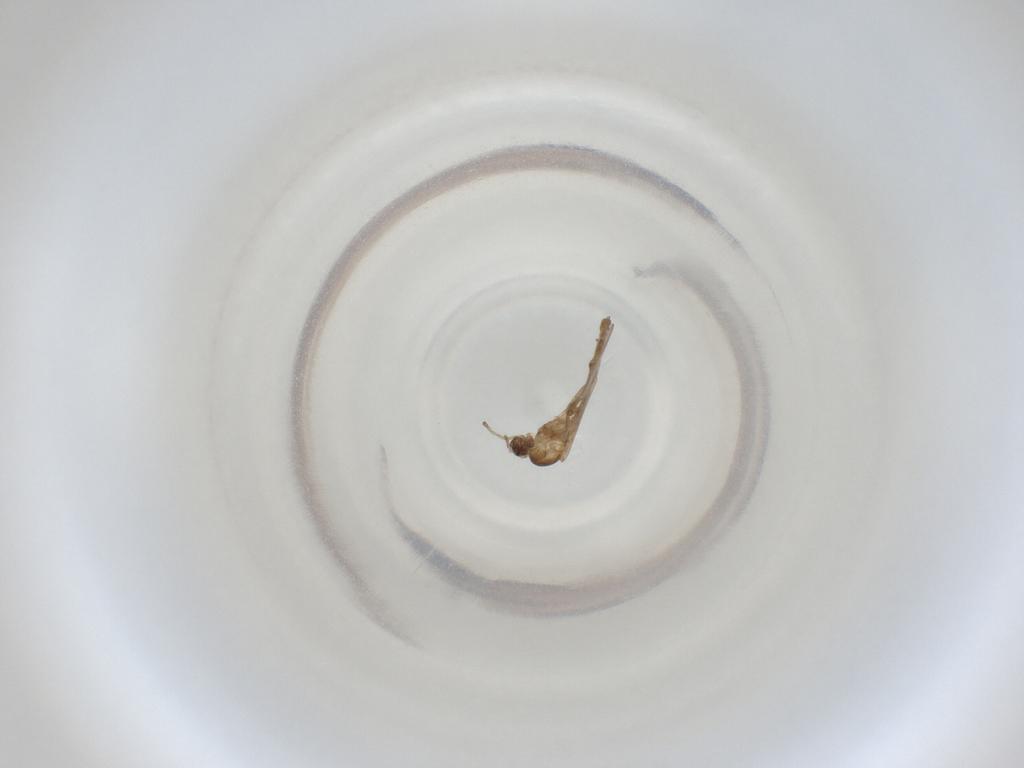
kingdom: Animalia
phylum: Arthropoda
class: Insecta
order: Diptera
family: Cecidomyiidae
